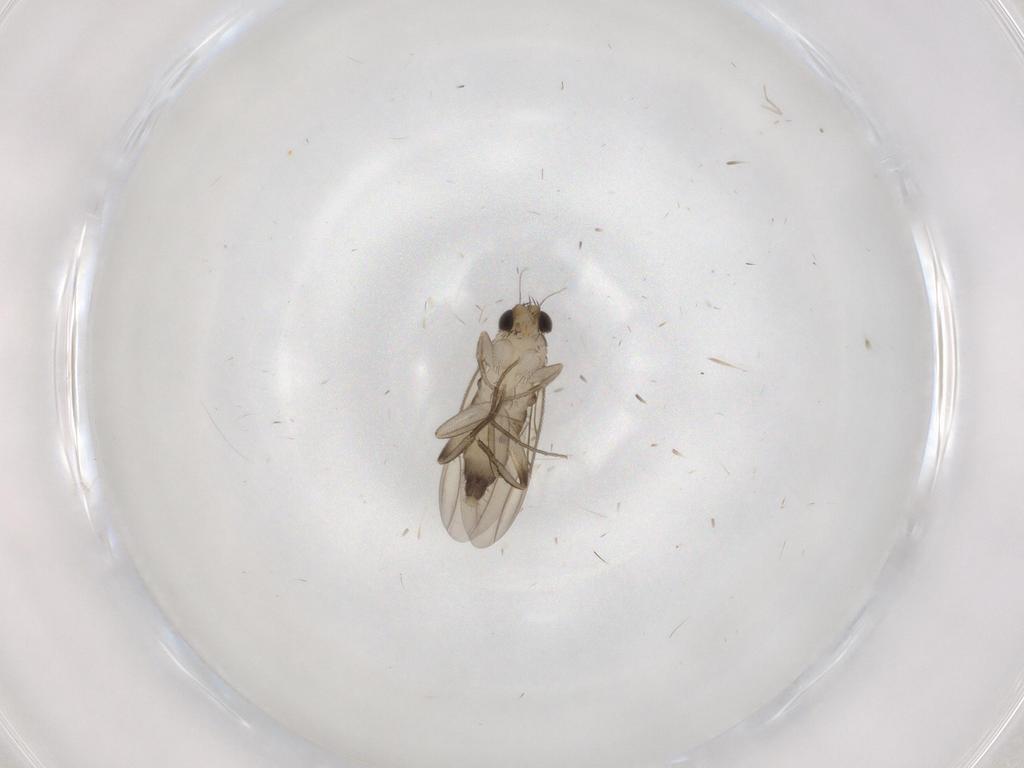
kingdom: Animalia
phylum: Arthropoda
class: Insecta
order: Diptera
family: Phoridae
